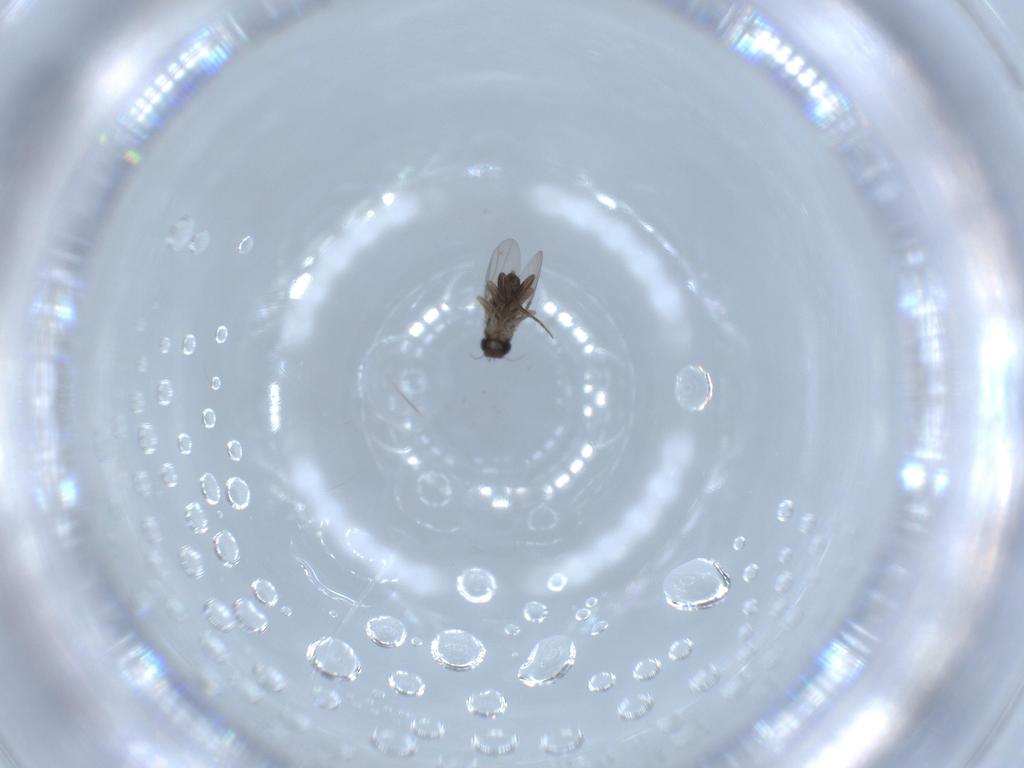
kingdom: Animalia
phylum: Arthropoda
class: Insecta
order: Diptera
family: Phoridae
